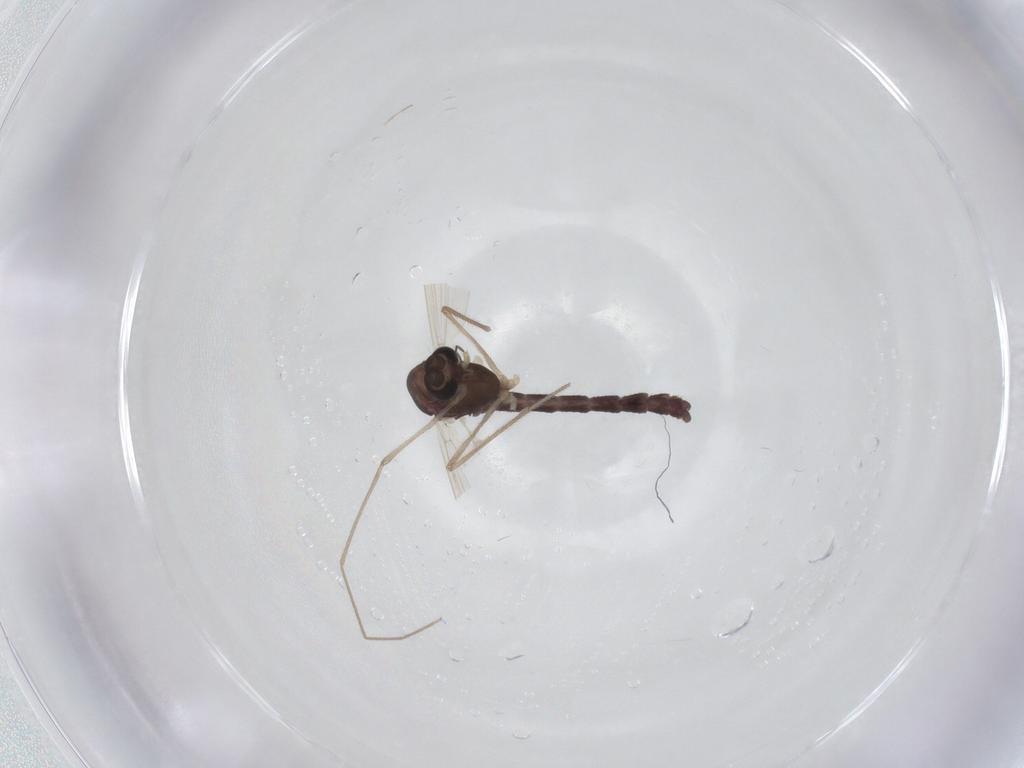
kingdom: Animalia
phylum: Arthropoda
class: Insecta
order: Diptera
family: Chironomidae
